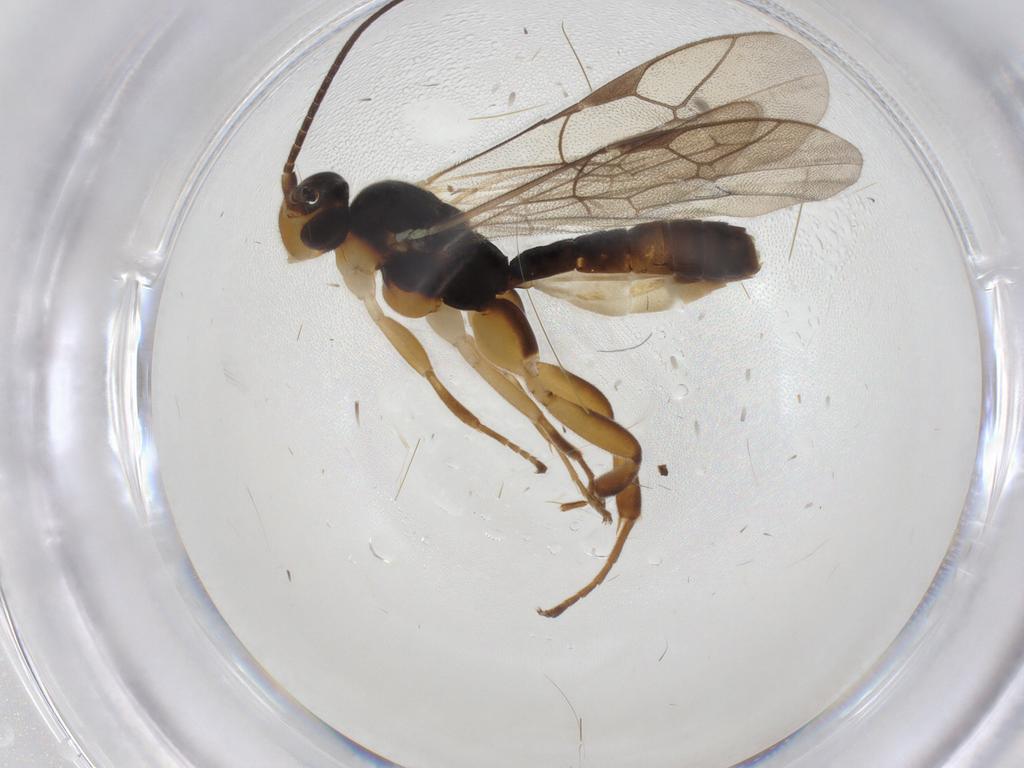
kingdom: Animalia
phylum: Arthropoda
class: Insecta
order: Hymenoptera
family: Ichneumonidae
